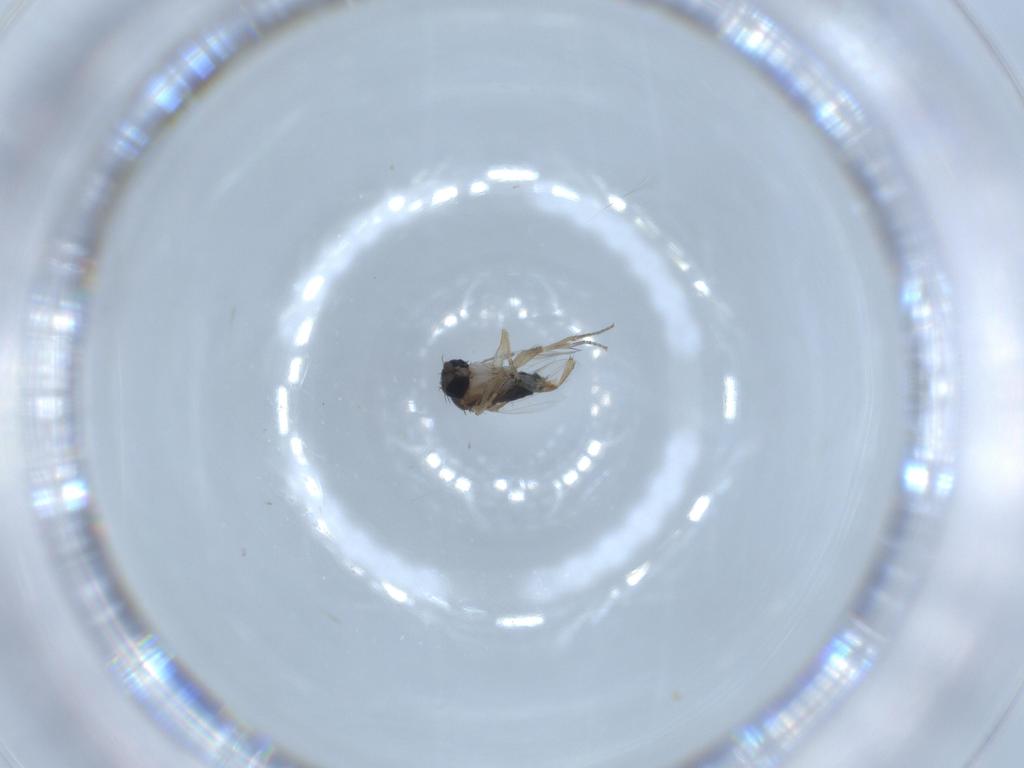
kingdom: Animalia
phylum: Arthropoda
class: Insecta
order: Diptera
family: Phoridae
